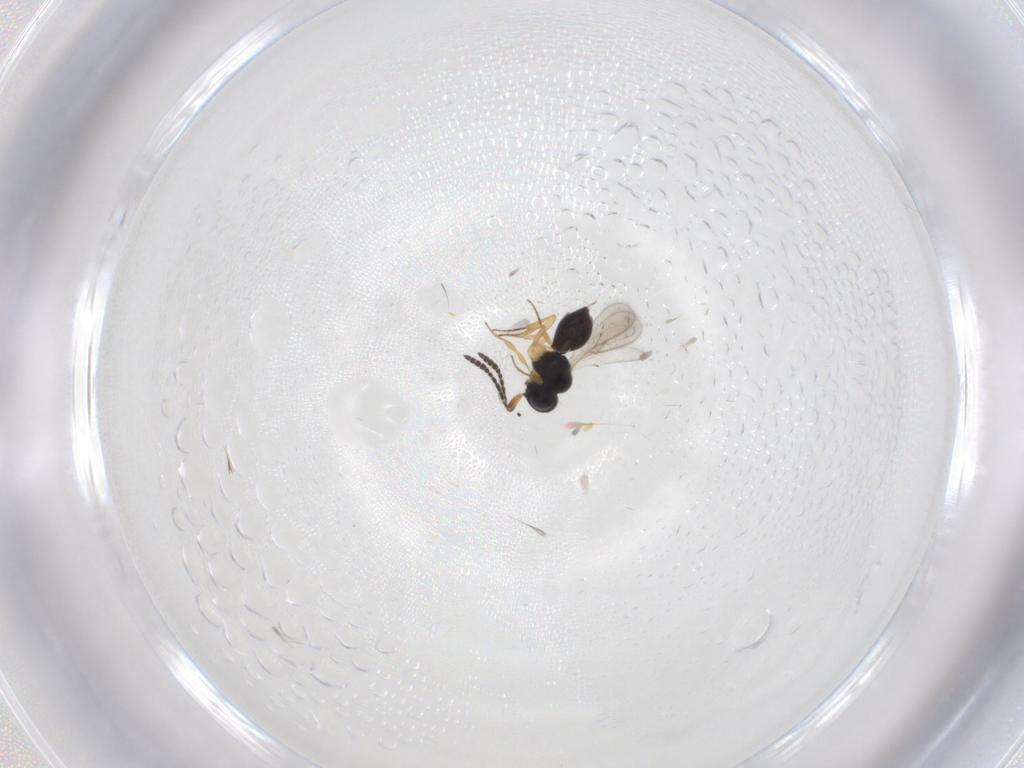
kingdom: Animalia
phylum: Arthropoda
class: Insecta
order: Hymenoptera
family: Scelionidae
